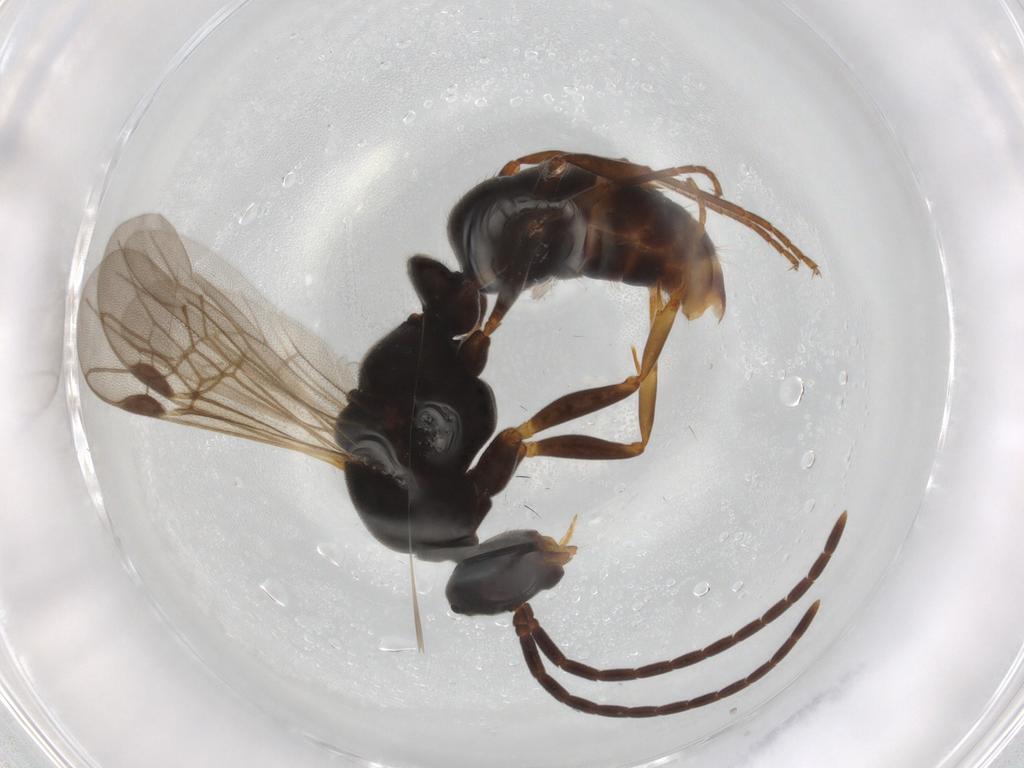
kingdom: Animalia
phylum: Arthropoda
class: Insecta
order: Hymenoptera
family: Formicidae
